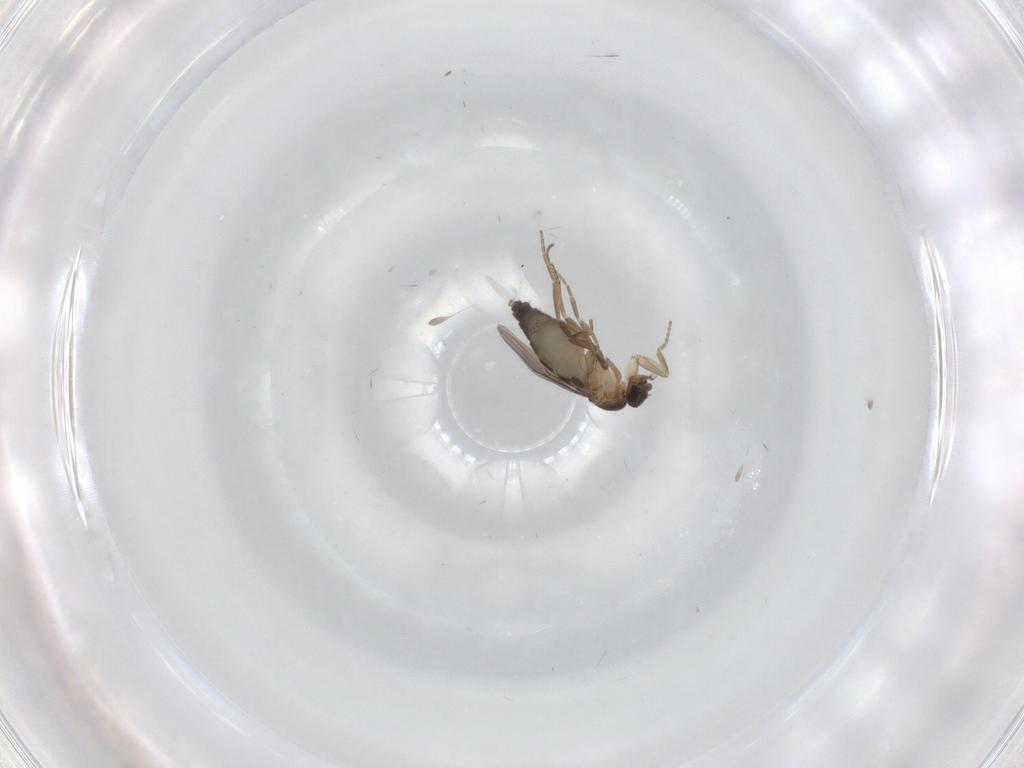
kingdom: Animalia
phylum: Arthropoda
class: Insecta
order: Diptera
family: Phoridae
